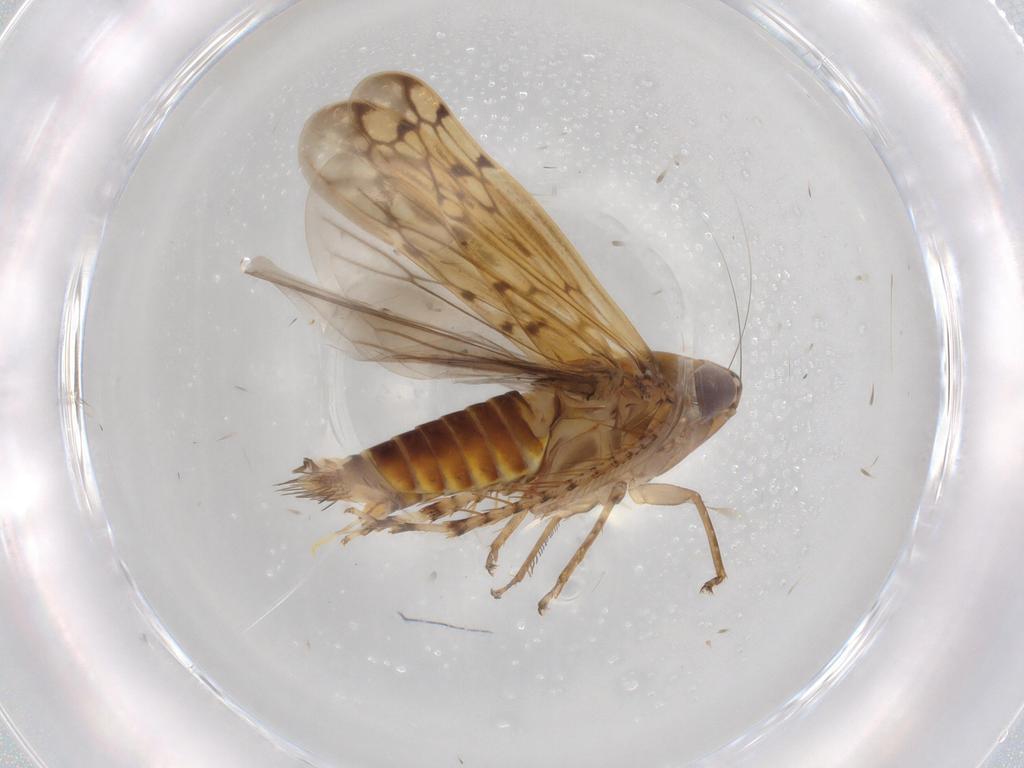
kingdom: Animalia
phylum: Arthropoda
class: Insecta
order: Hemiptera
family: Cicadellidae
